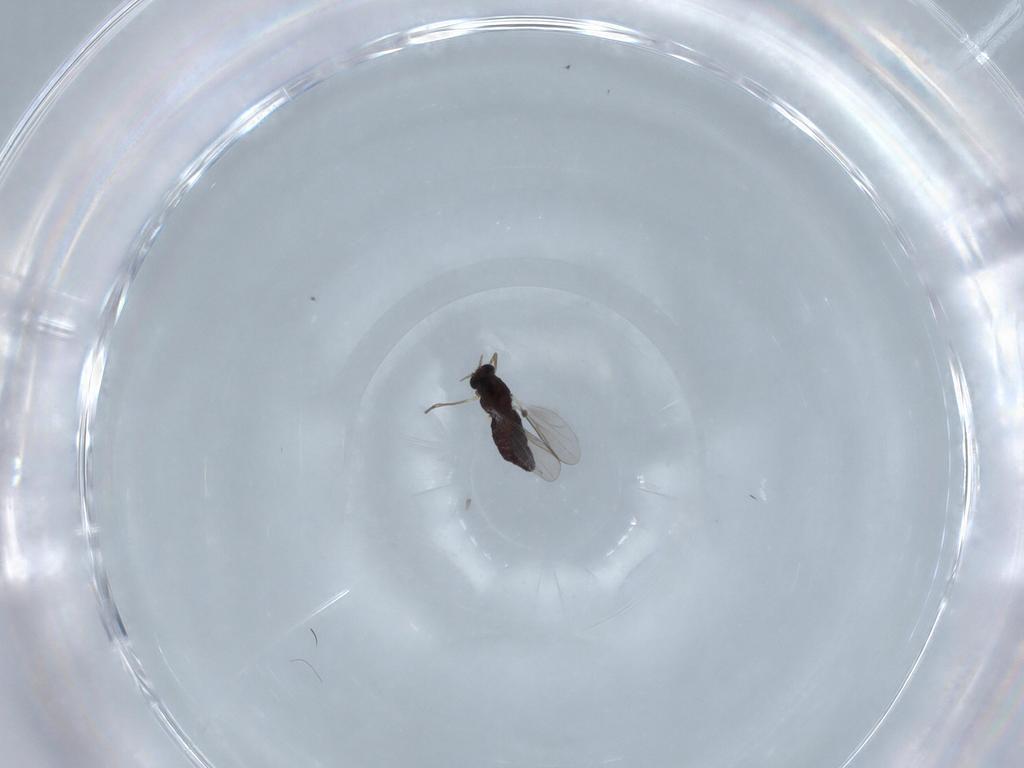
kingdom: Animalia
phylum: Arthropoda
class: Insecta
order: Diptera
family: Chironomidae
